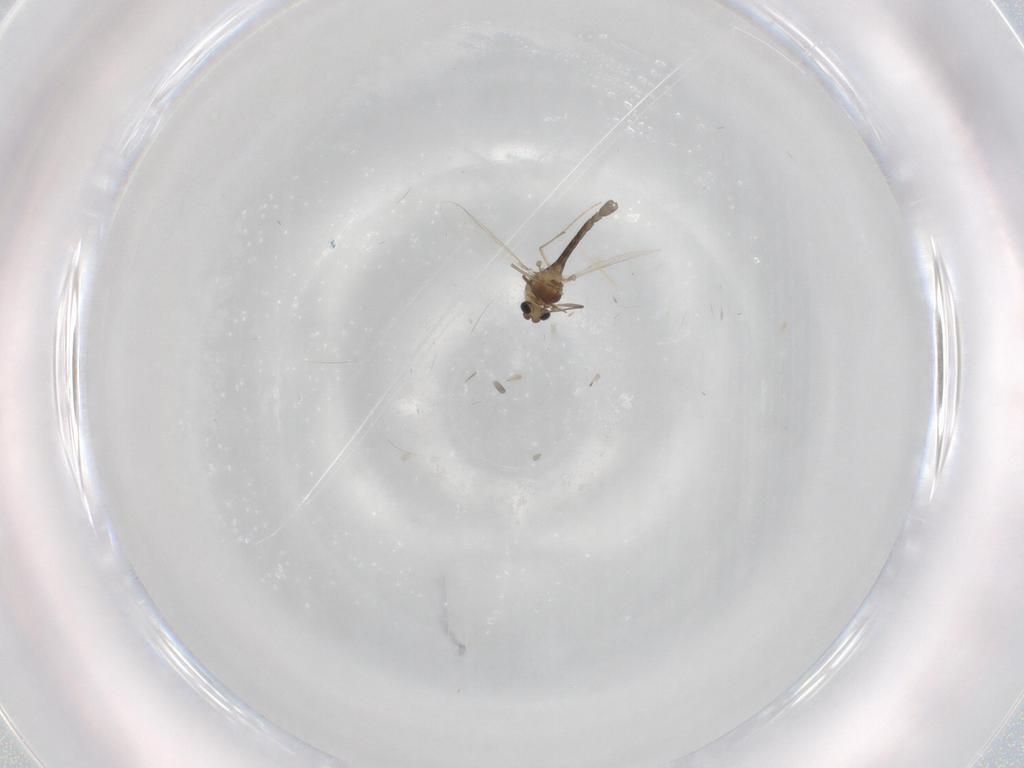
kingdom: Animalia
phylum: Arthropoda
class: Insecta
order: Diptera
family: Chironomidae
